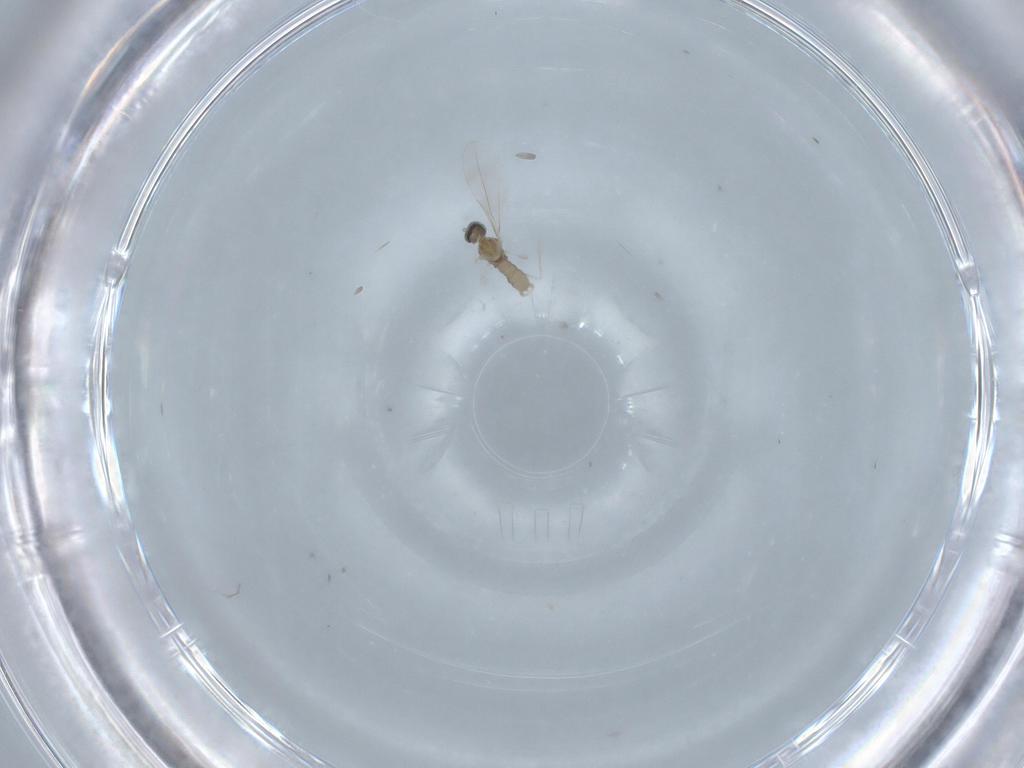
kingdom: Animalia
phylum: Arthropoda
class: Insecta
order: Diptera
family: Cecidomyiidae
